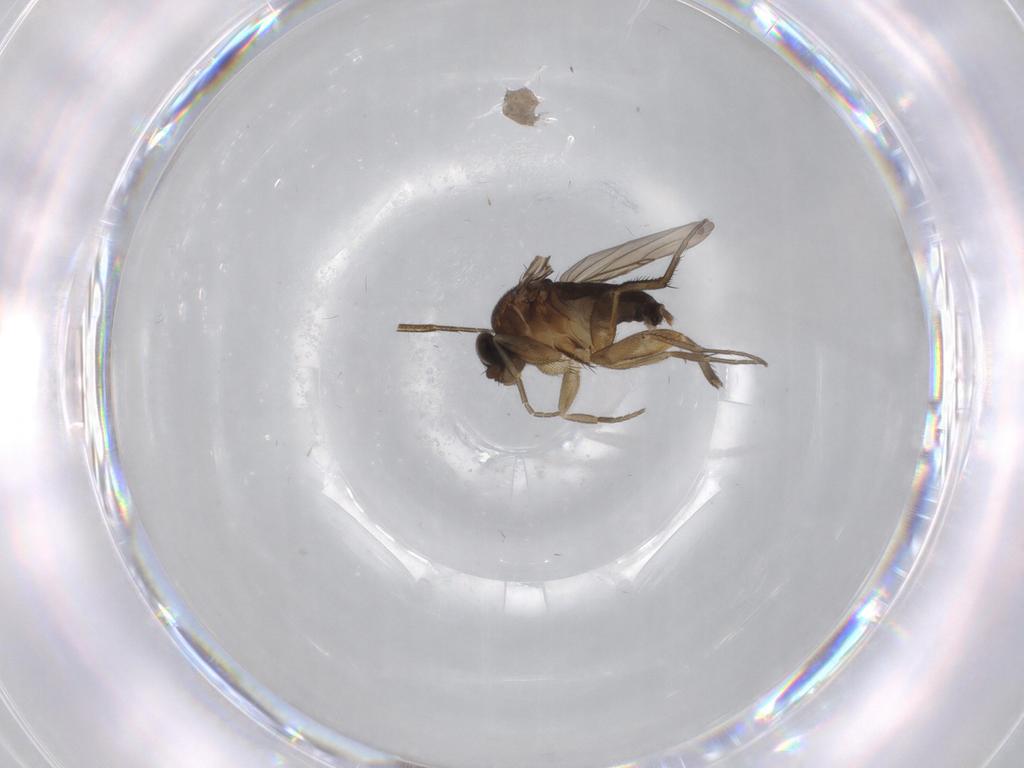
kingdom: Animalia
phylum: Arthropoda
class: Insecta
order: Diptera
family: Phoridae
